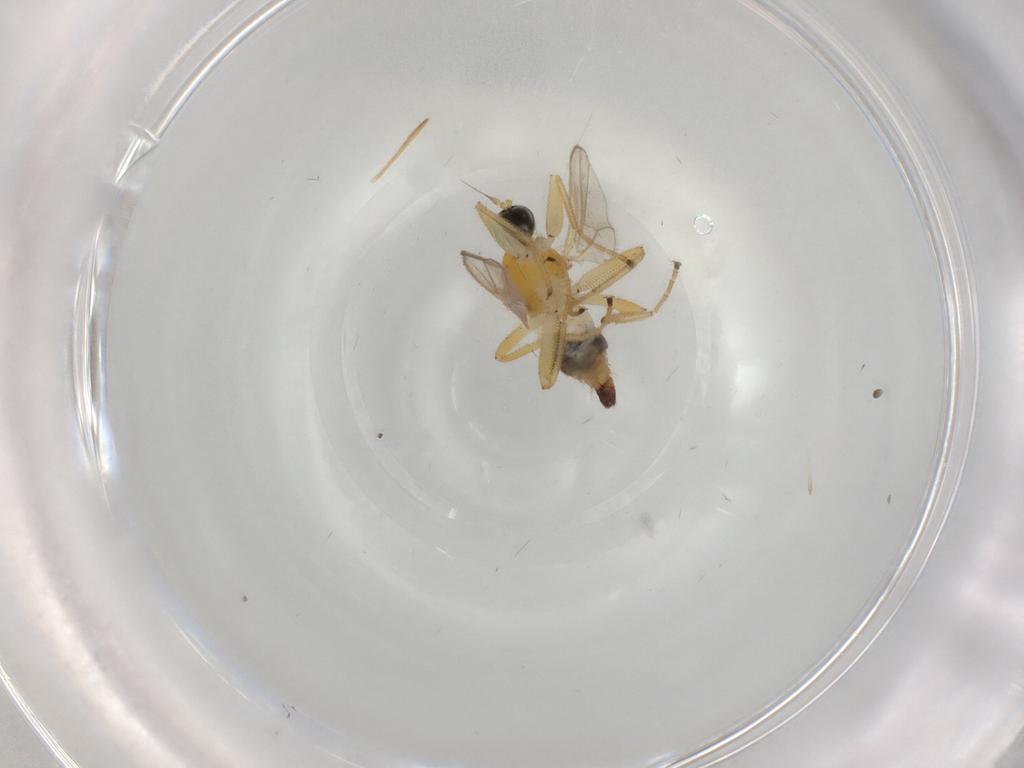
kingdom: Animalia
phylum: Arthropoda
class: Insecta
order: Diptera
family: Hybotidae
